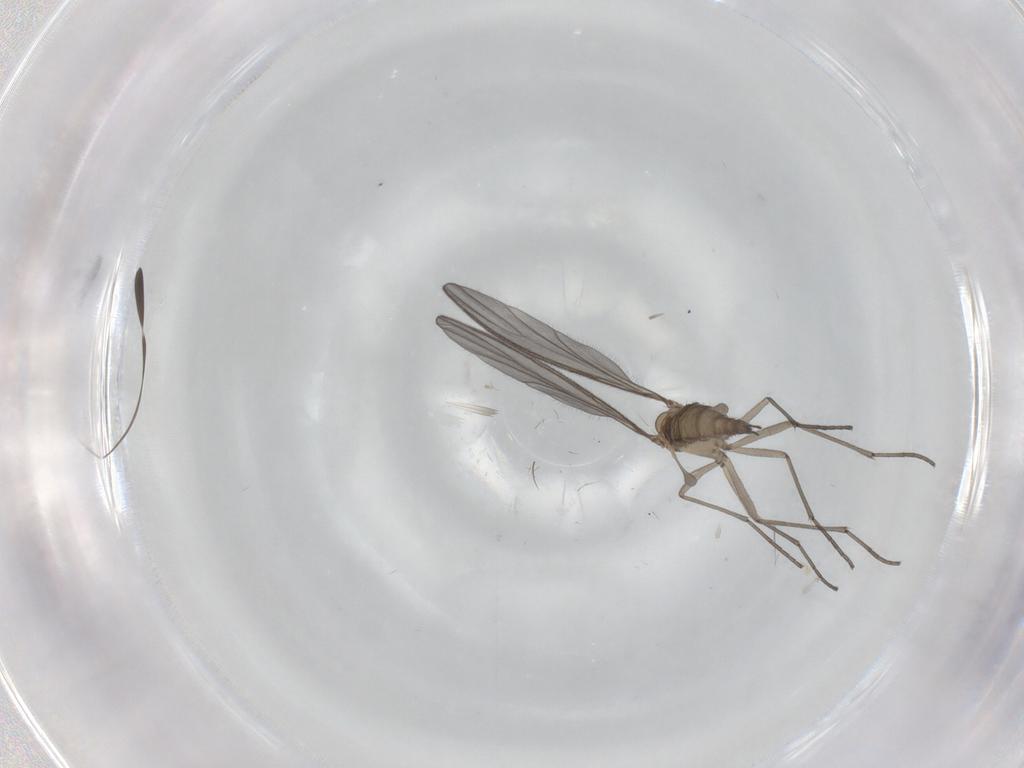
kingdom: Animalia
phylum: Arthropoda
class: Insecta
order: Diptera
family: Sciaridae
